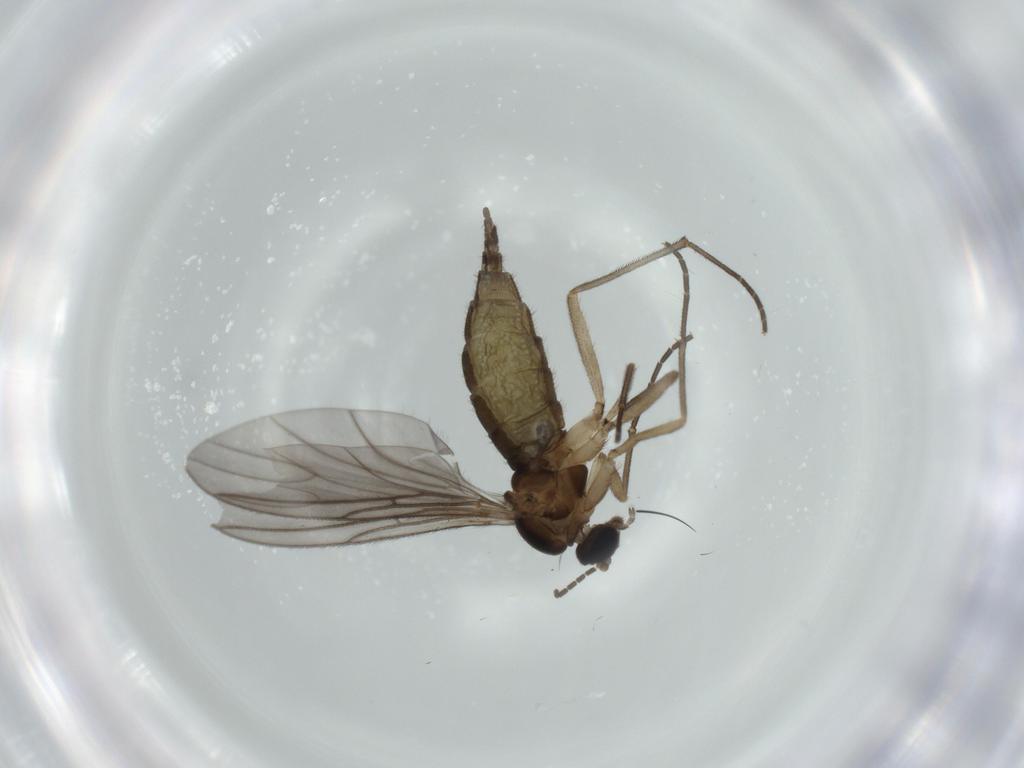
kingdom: Animalia
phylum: Arthropoda
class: Insecta
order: Diptera
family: Sciaridae
